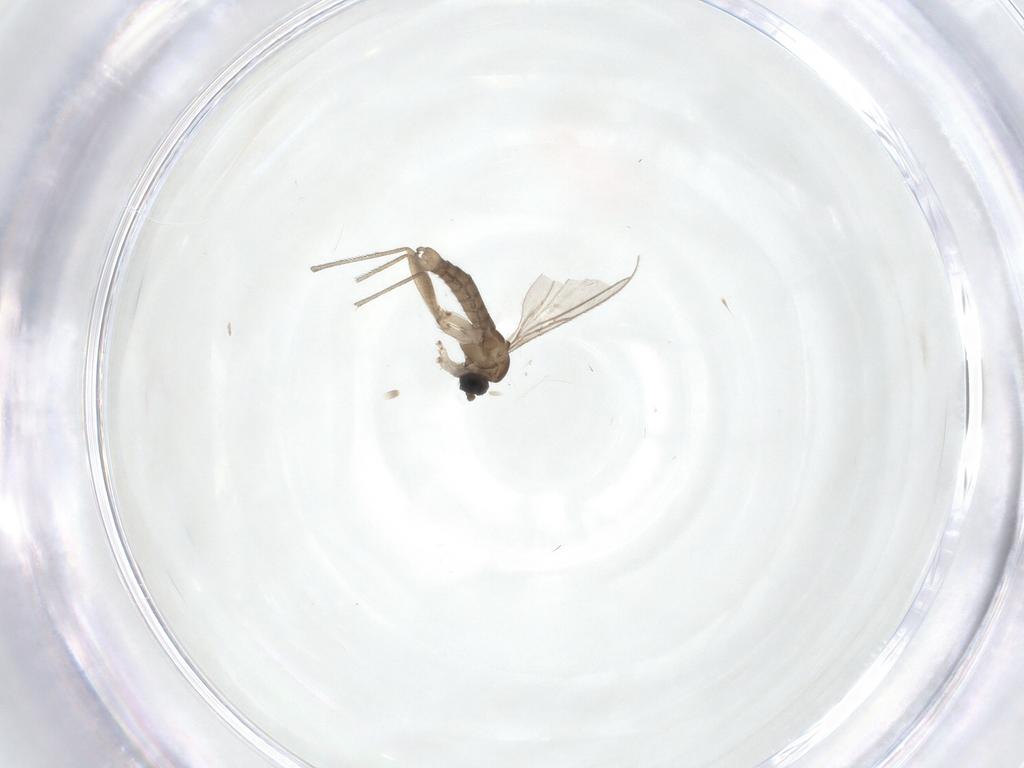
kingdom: Animalia
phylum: Arthropoda
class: Insecta
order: Diptera
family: Sciaridae
